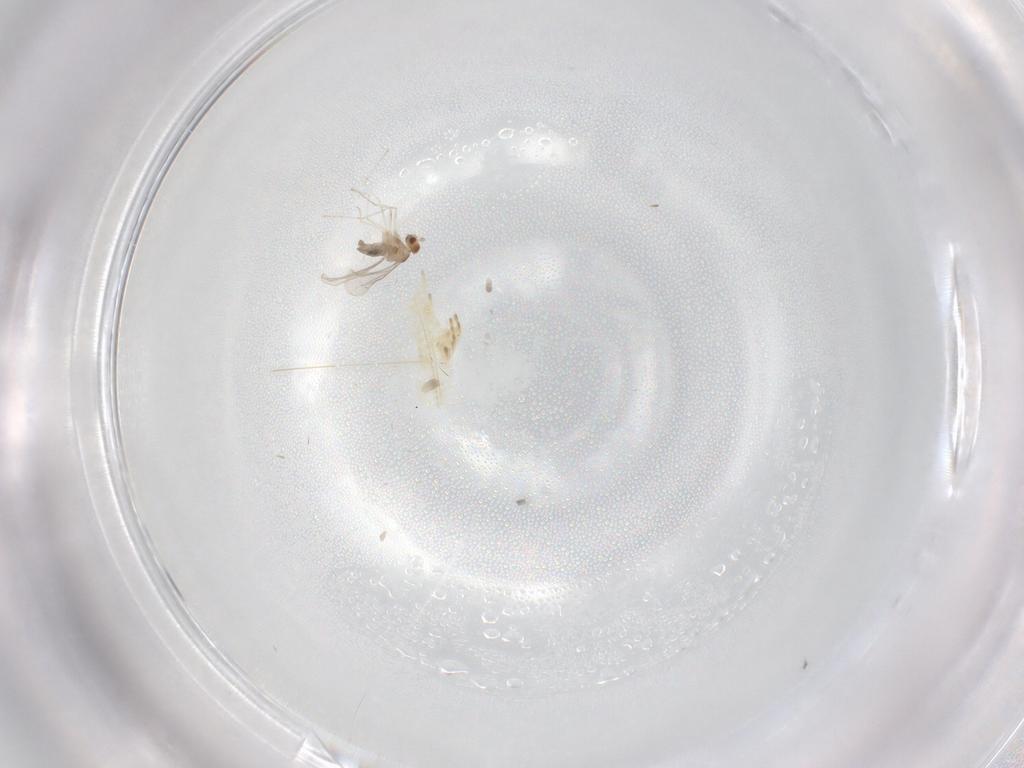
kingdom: Animalia
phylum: Arthropoda
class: Insecta
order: Diptera
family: Cecidomyiidae
